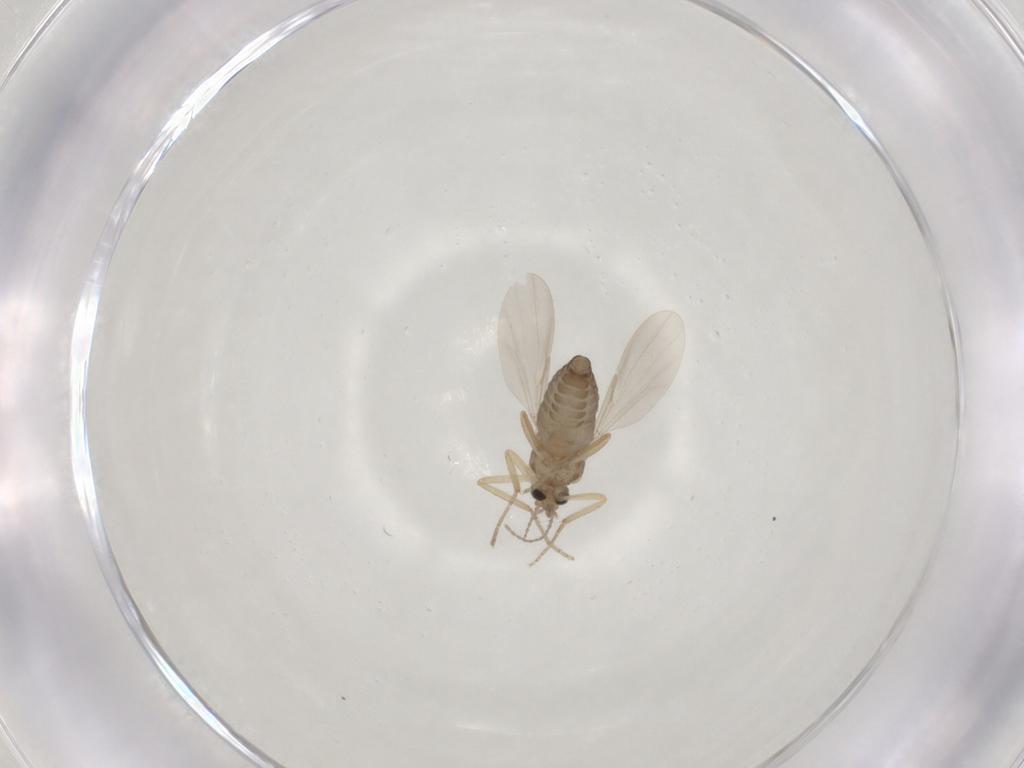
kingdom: Animalia
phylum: Arthropoda
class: Insecta
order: Diptera
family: Ceratopogonidae
